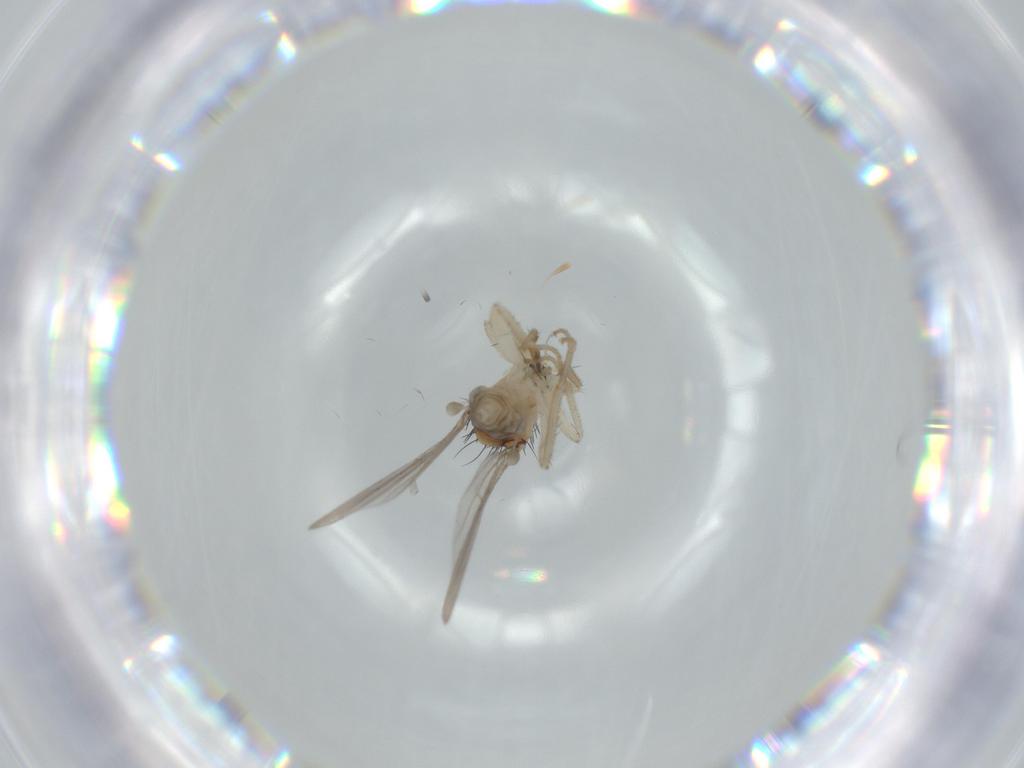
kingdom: Animalia
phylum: Arthropoda
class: Insecta
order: Diptera
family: Hybotidae
